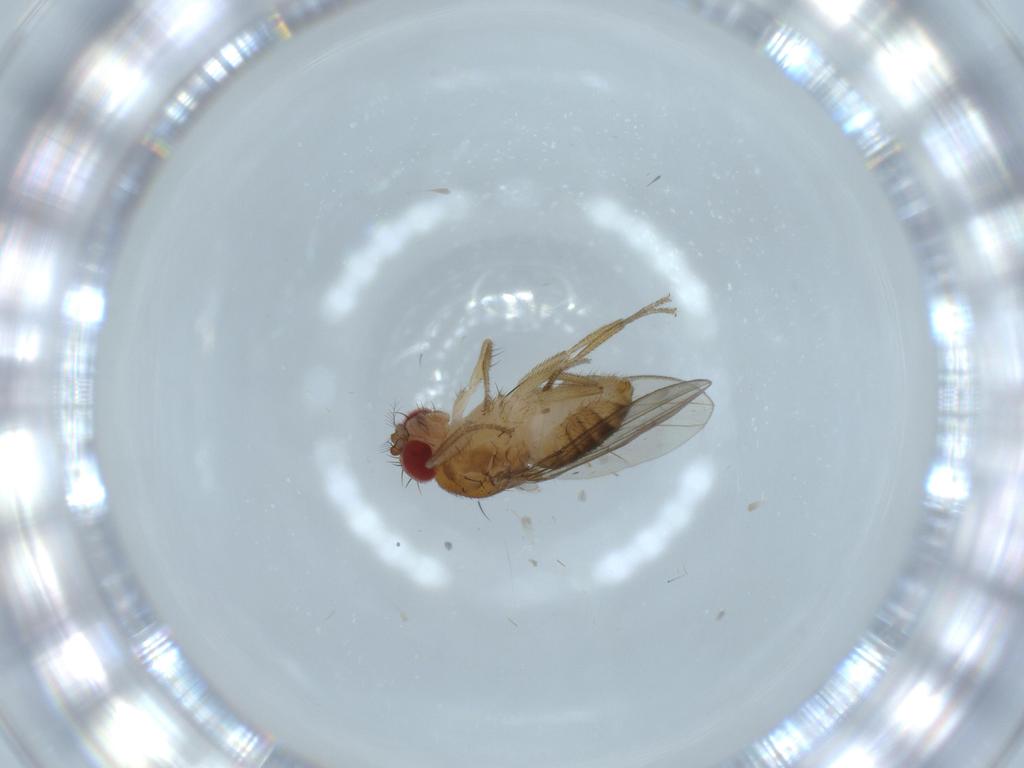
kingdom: Animalia
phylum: Arthropoda
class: Insecta
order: Diptera
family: Drosophilidae
